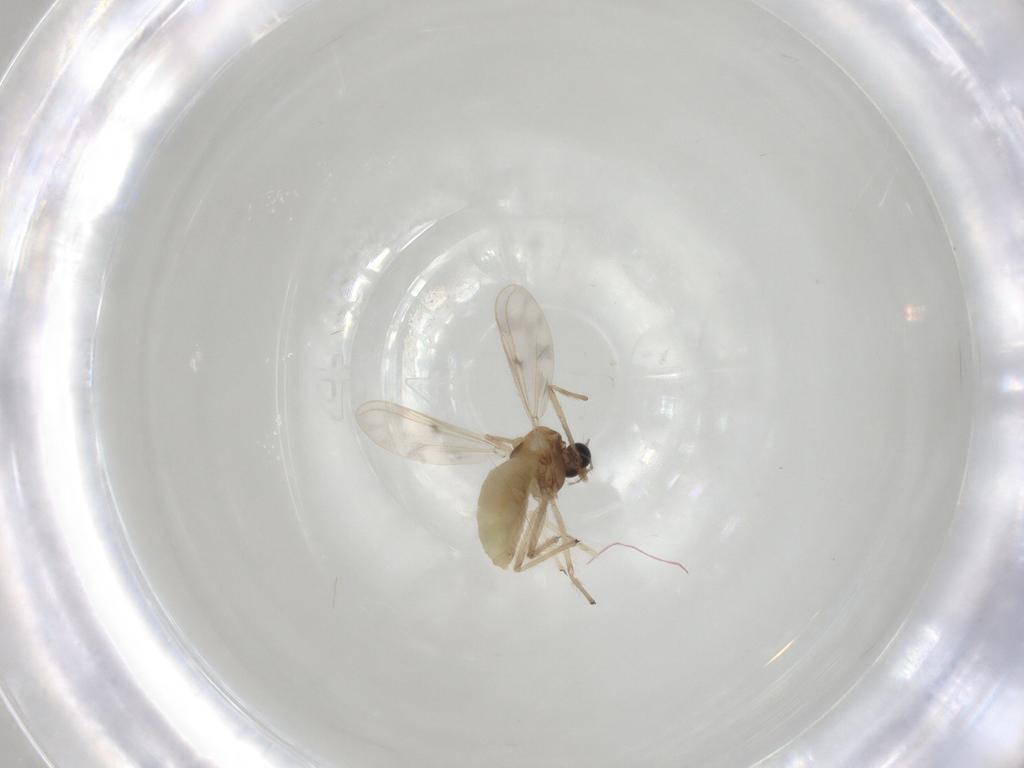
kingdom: Animalia
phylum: Arthropoda
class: Insecta
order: Diptera
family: Chironomidae
